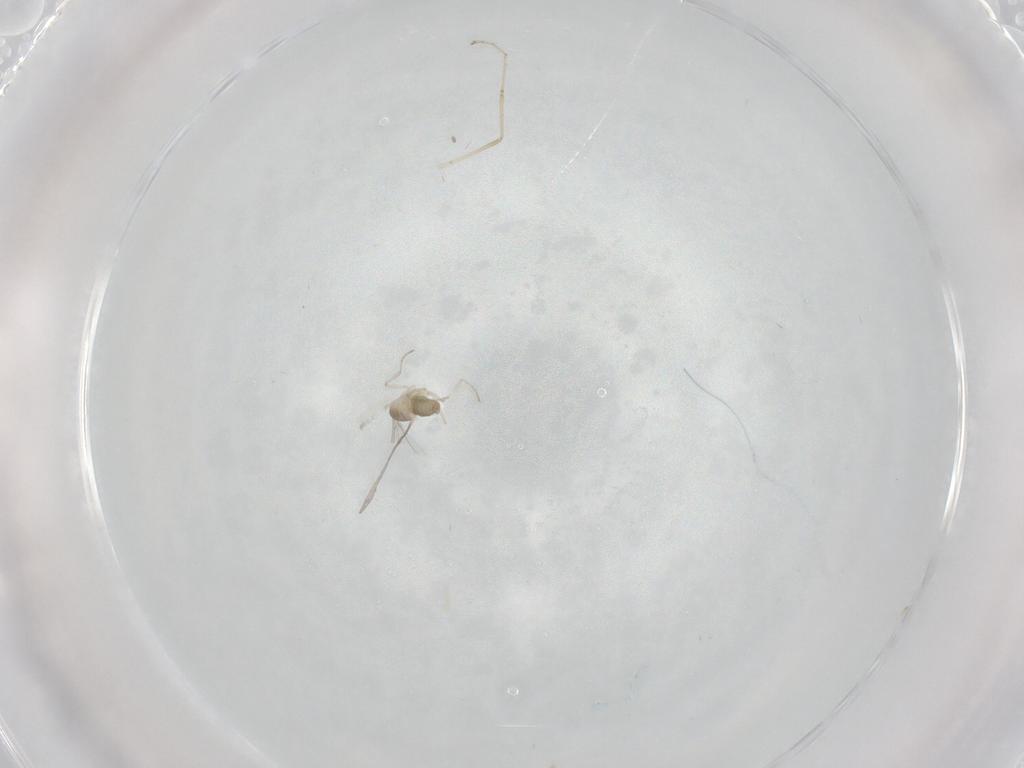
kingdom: Animalia
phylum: Arthropoda
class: Insecta
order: Diptera
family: Cecidomyiidae
